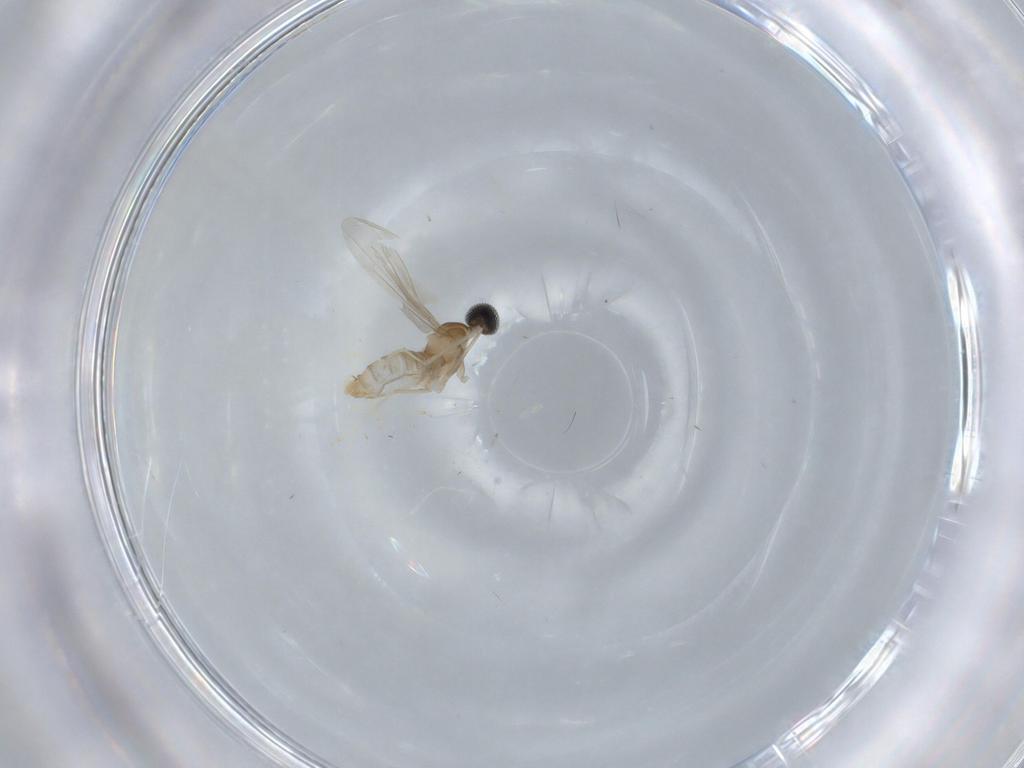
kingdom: Animalia
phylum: Arthropoda
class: Insecta
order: Diptera
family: Cecidomyiidae
